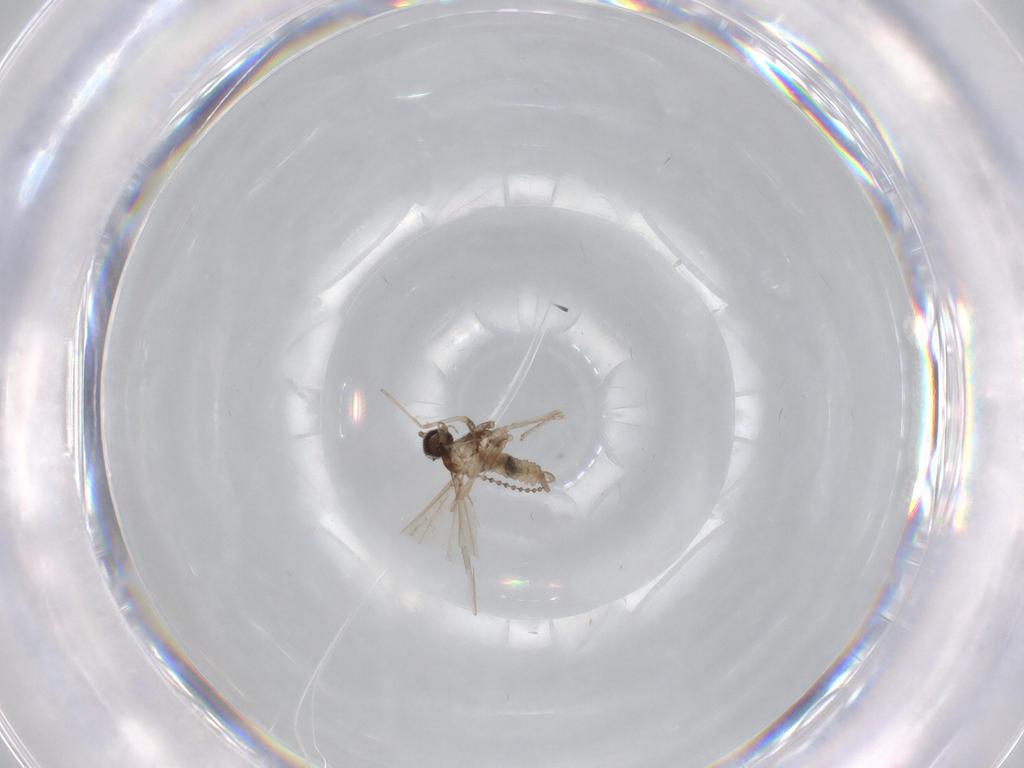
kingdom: Animalia
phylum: Arthropoda
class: Insecta
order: Diptera
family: Cecidomyiidae
